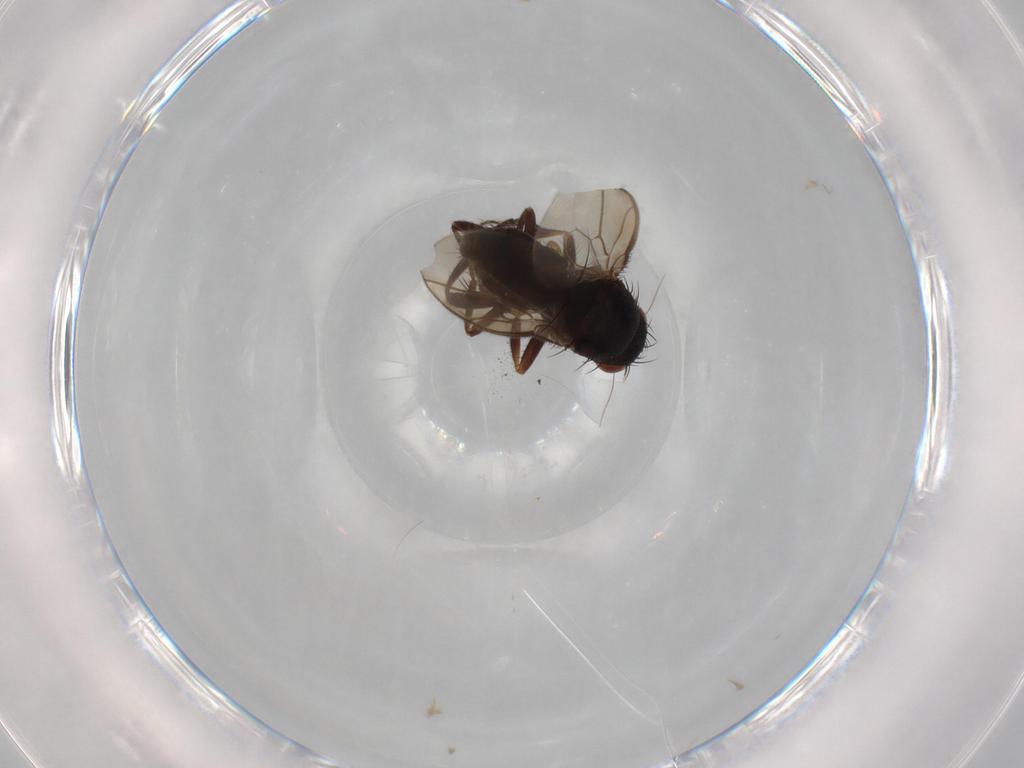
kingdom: Animalia
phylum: Arthropoda
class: Insecta
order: Diptera
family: Sphaeroceridae
